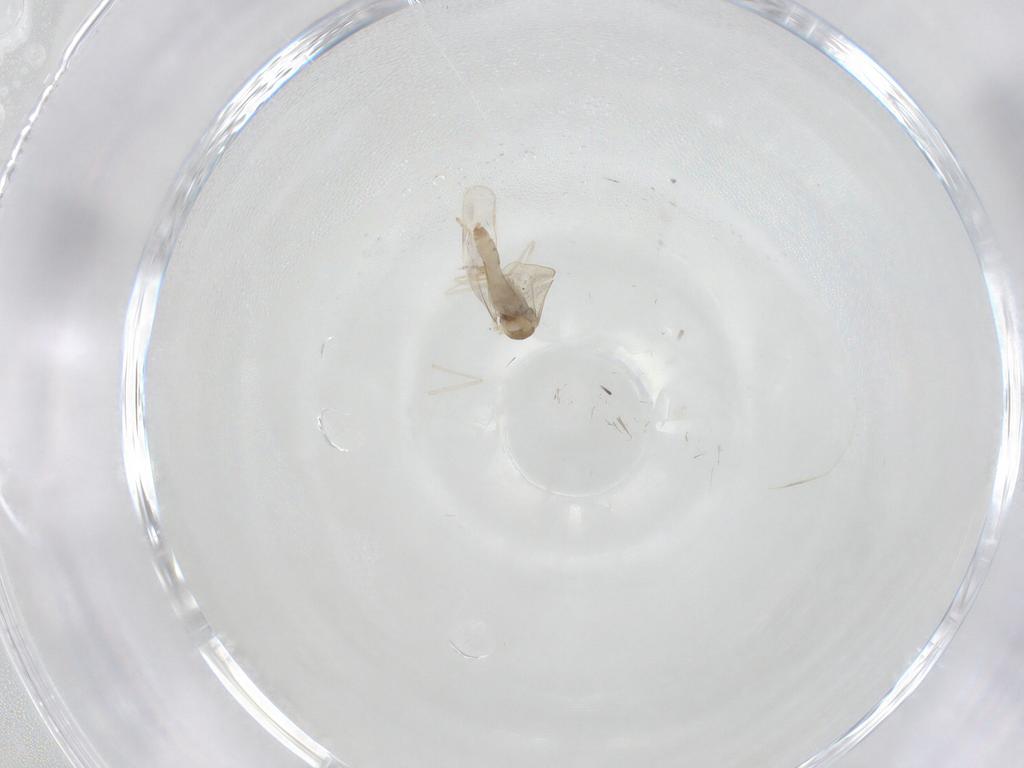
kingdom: Animalia
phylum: Arthropoda
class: Insecta
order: Diptera
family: Cecidomyiidae
